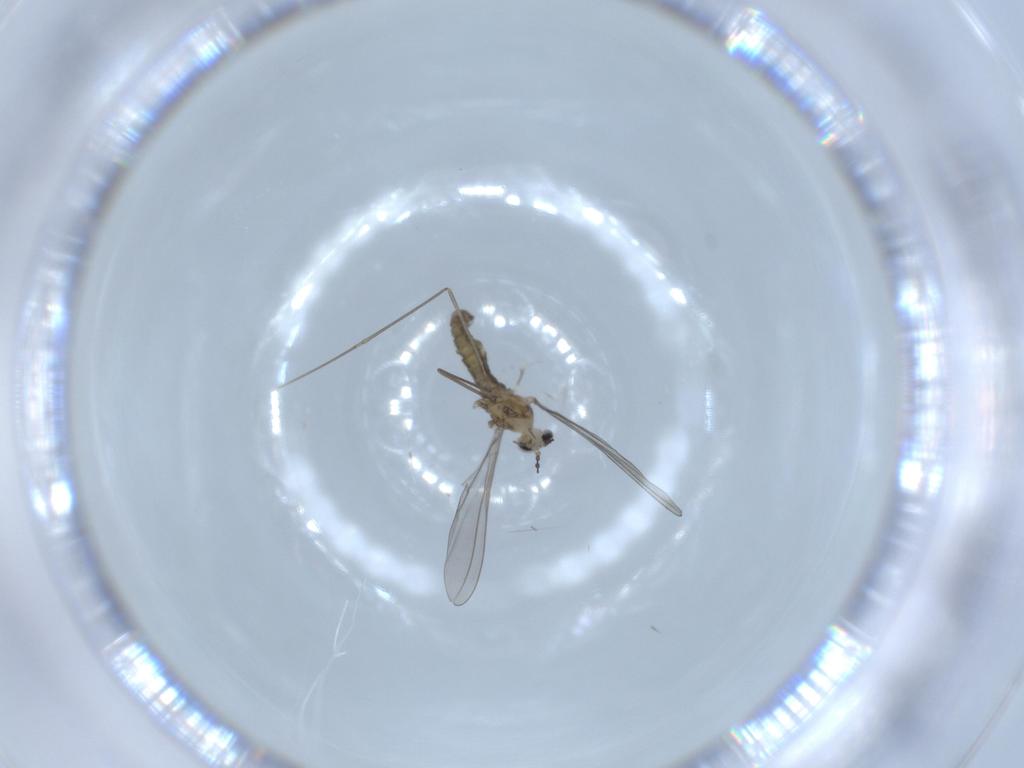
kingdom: Animalia
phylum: Arthropoda
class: Insecta
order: Diptera
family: Cecidomyiidae
